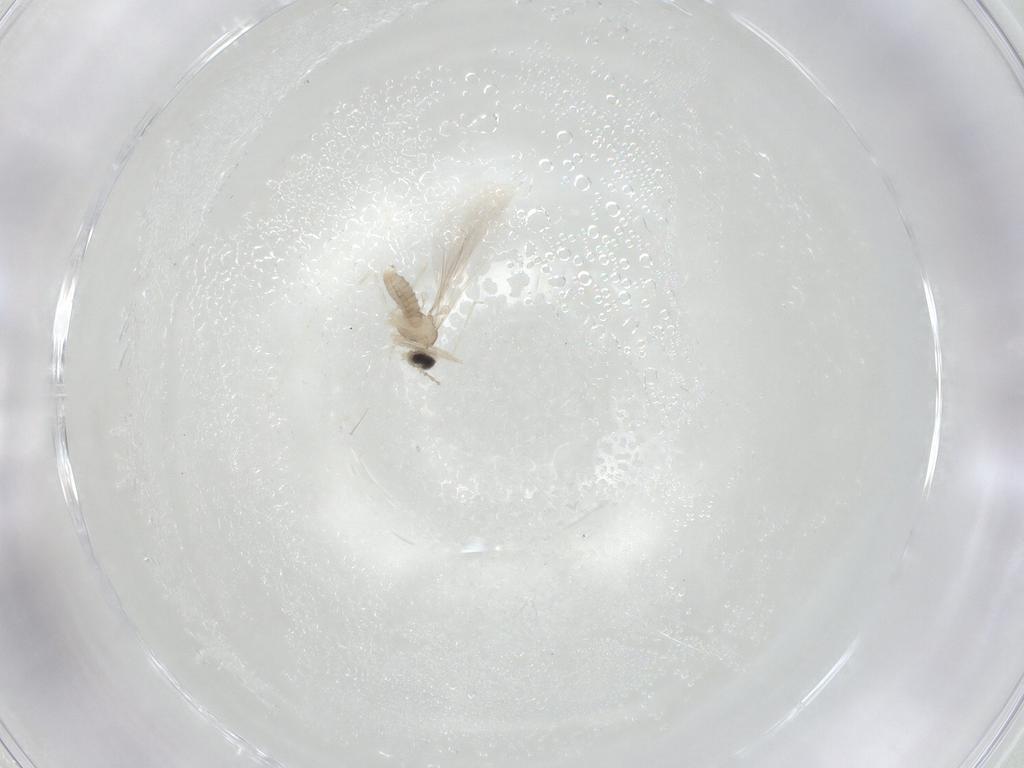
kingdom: Animalia
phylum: Arthropoda
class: Insecta
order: Diptera
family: Cecidomyiidae
